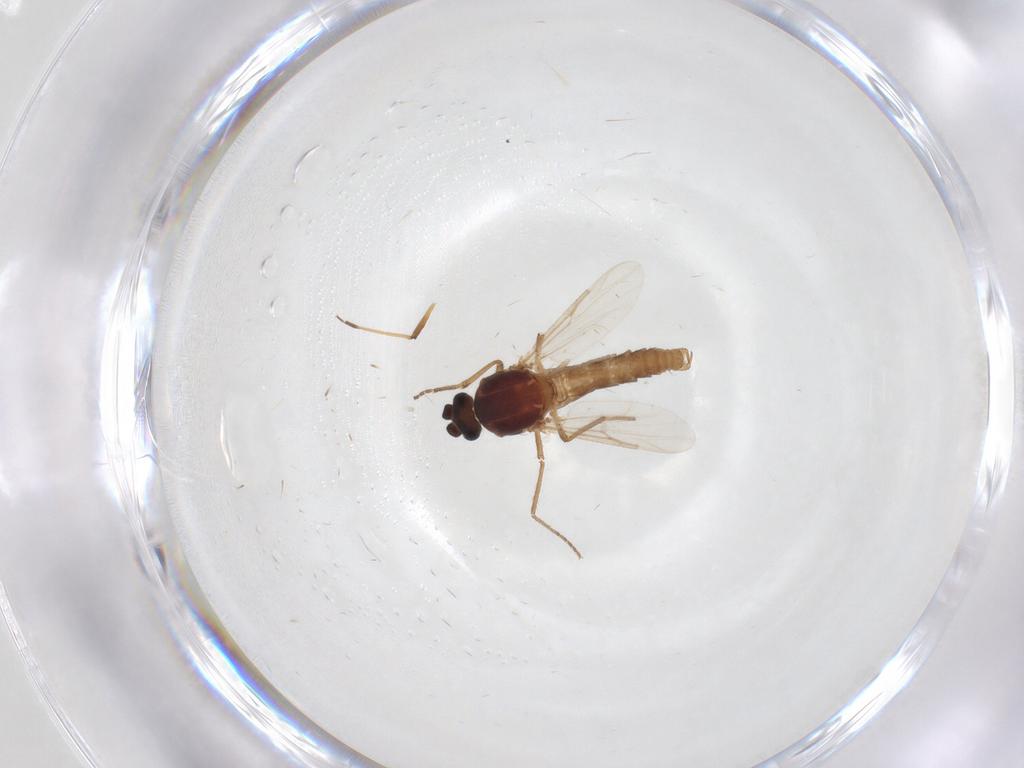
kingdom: Animalia
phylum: Arthropoda
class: Insecta
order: Diptera
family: Ceratopogonidae
